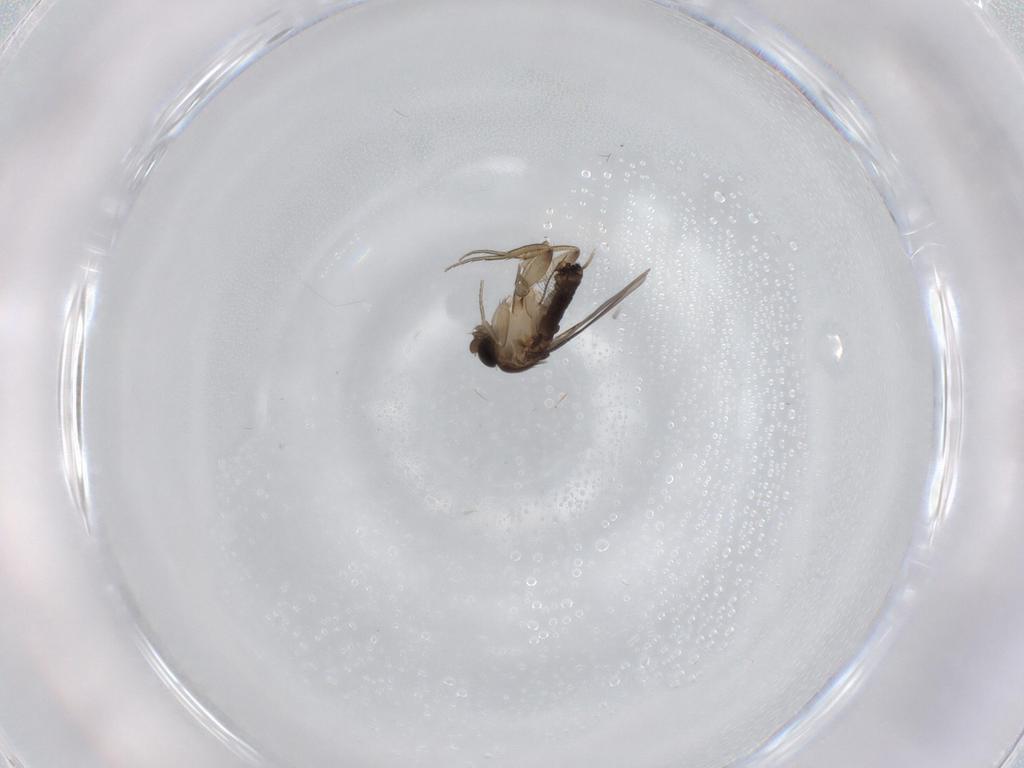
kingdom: Animalia
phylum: Arthropoda
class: Insecta
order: Diptera
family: Phoridae
